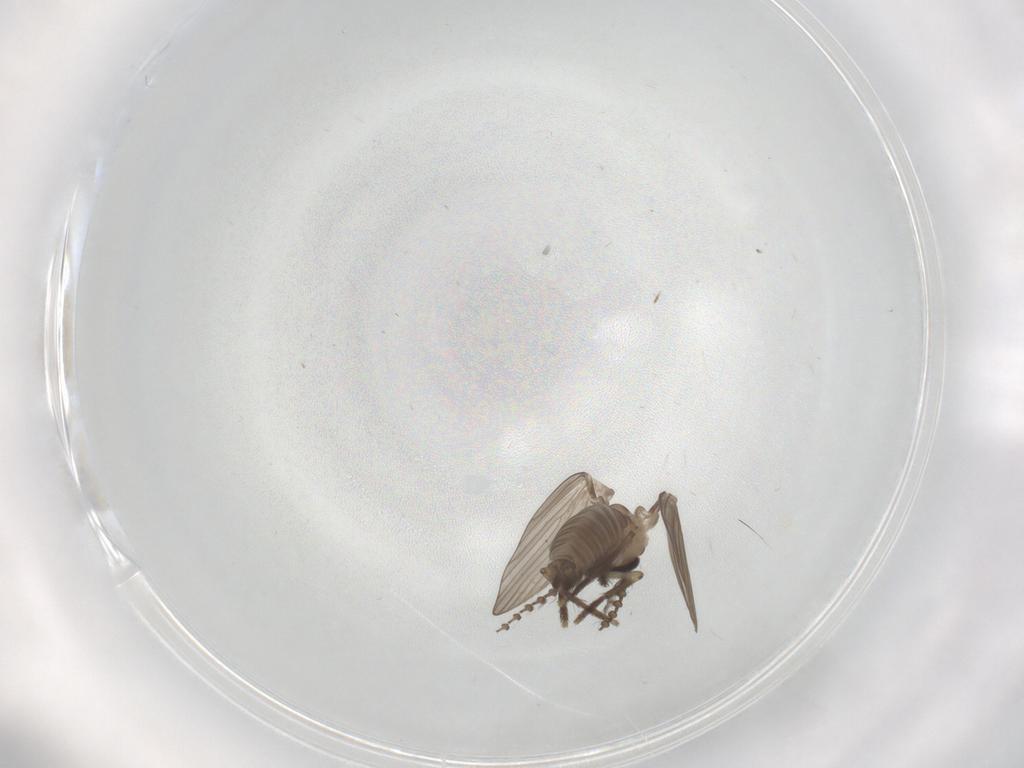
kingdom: Animalia
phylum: Arthropoda
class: Insecta
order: Diptera
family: Psychodidae
